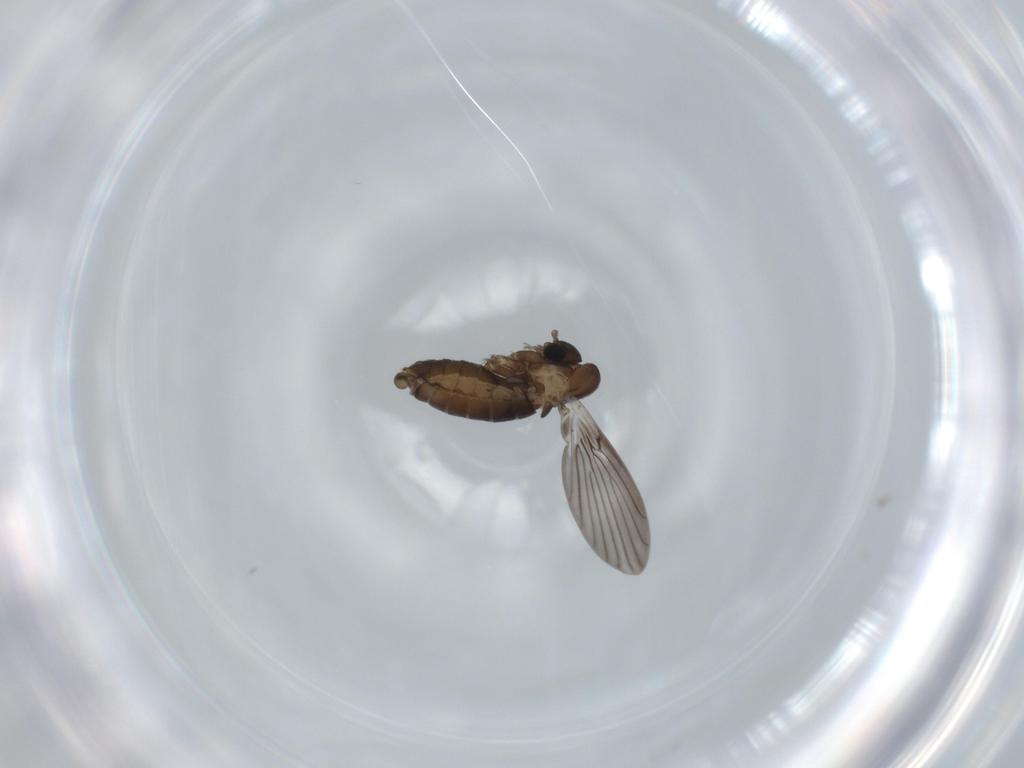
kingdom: Animalia
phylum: Arthropoda
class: Insecta
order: Diptera
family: Psychodidae
